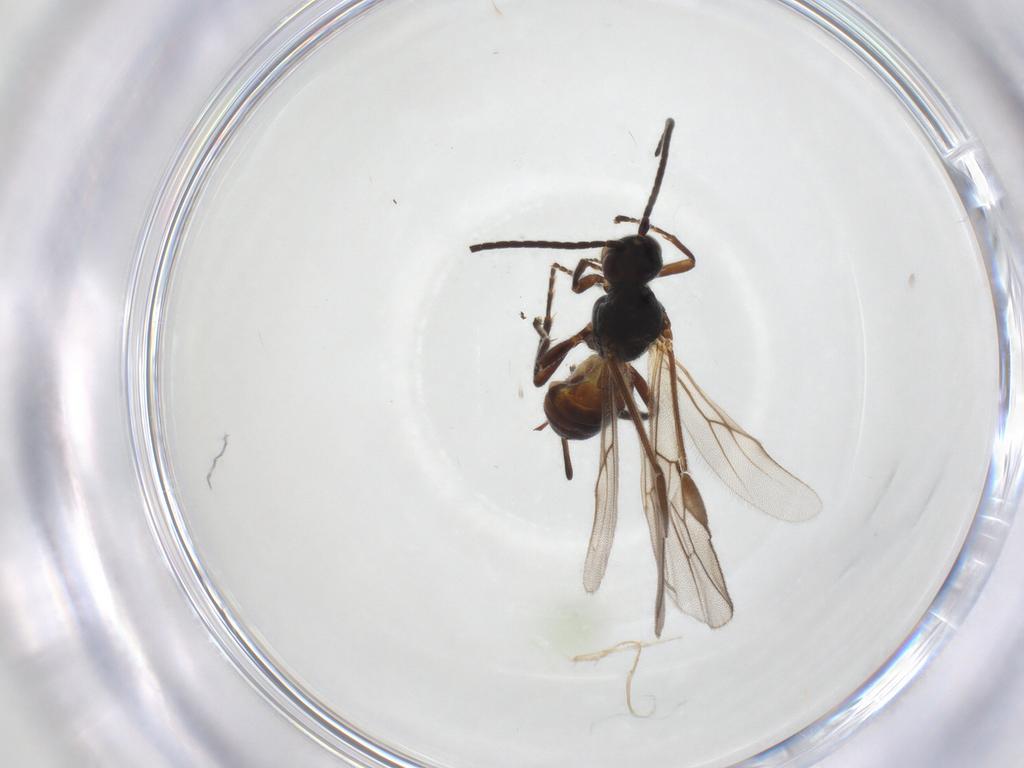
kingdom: Animalia
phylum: Arthropoda
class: Insecta
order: Hymenoptera
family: Braconidae
